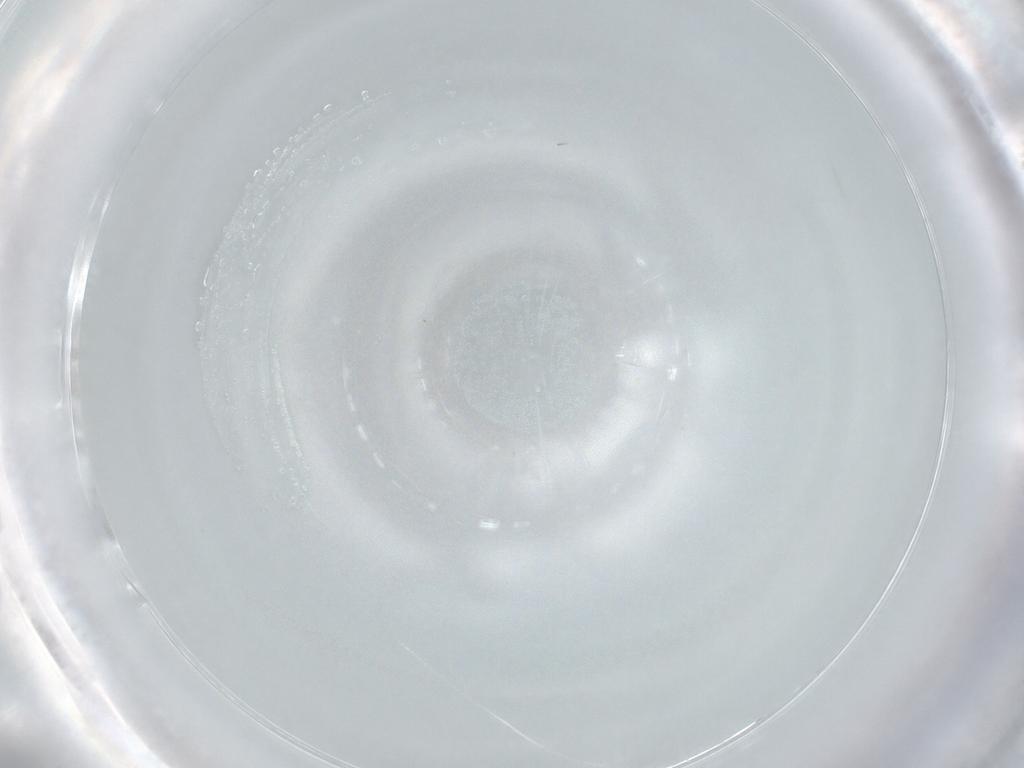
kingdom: Animalia
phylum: Arthropoda
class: Insecta
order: Diptera
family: Cecidomyiidae
